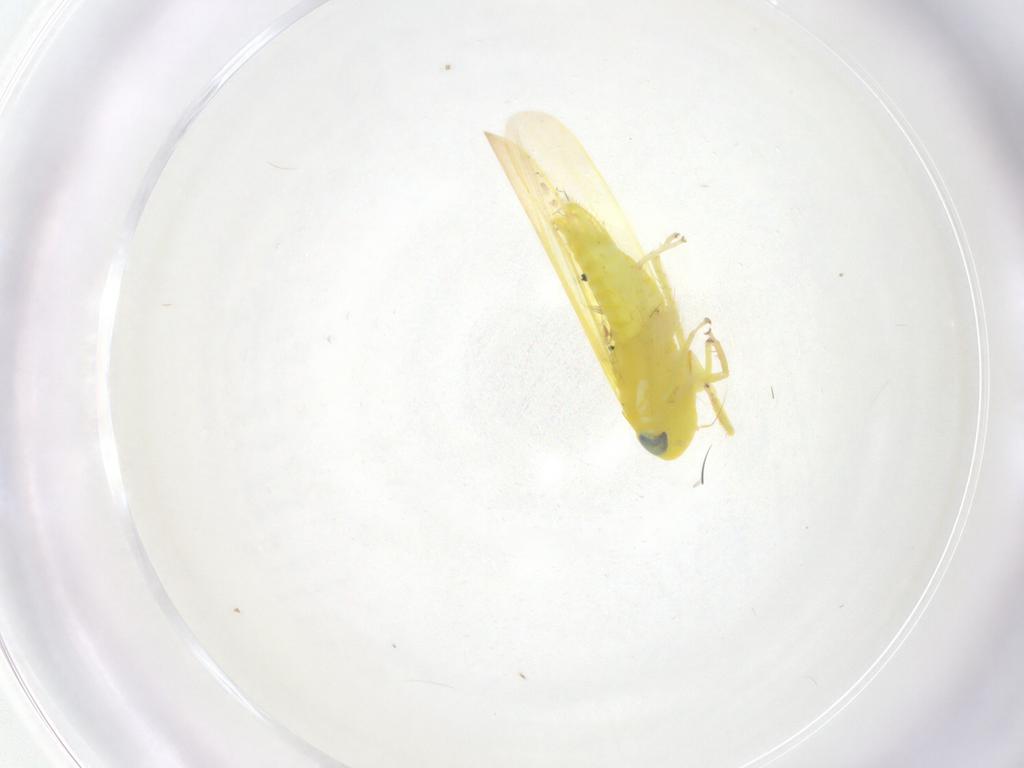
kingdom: Animalia
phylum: Arthropoda
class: Insecta
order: Hemiptera
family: Cicadellidae
